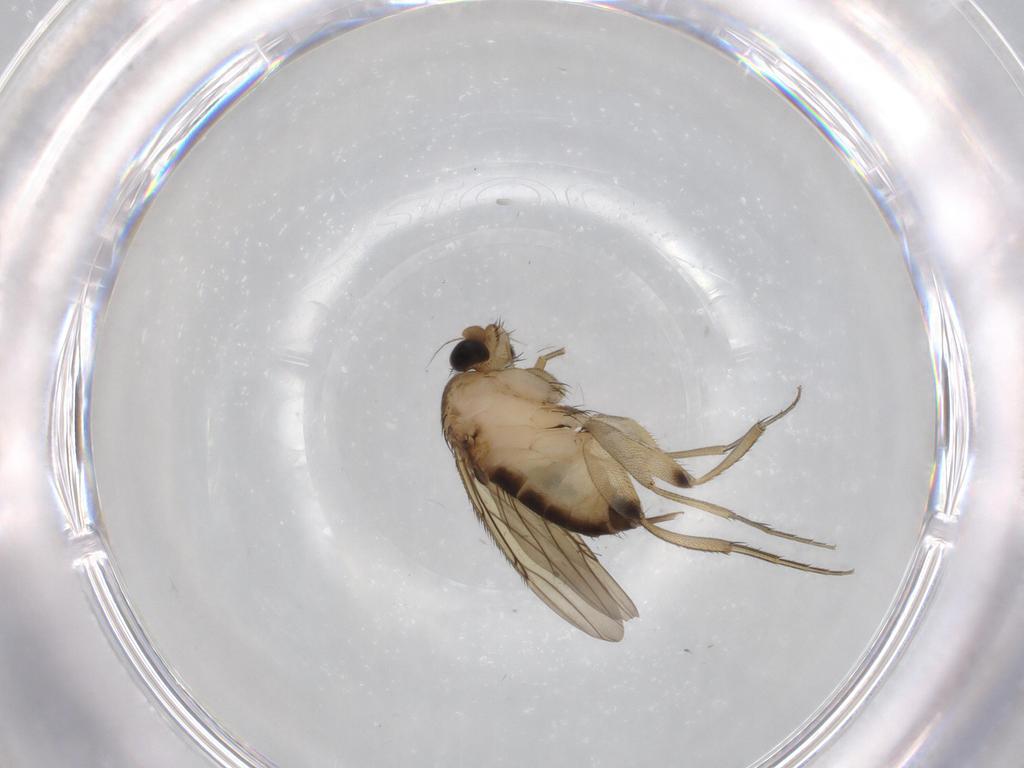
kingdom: Animalia
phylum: Arthropoda
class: Insecta
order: Diptera
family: Phoridae
